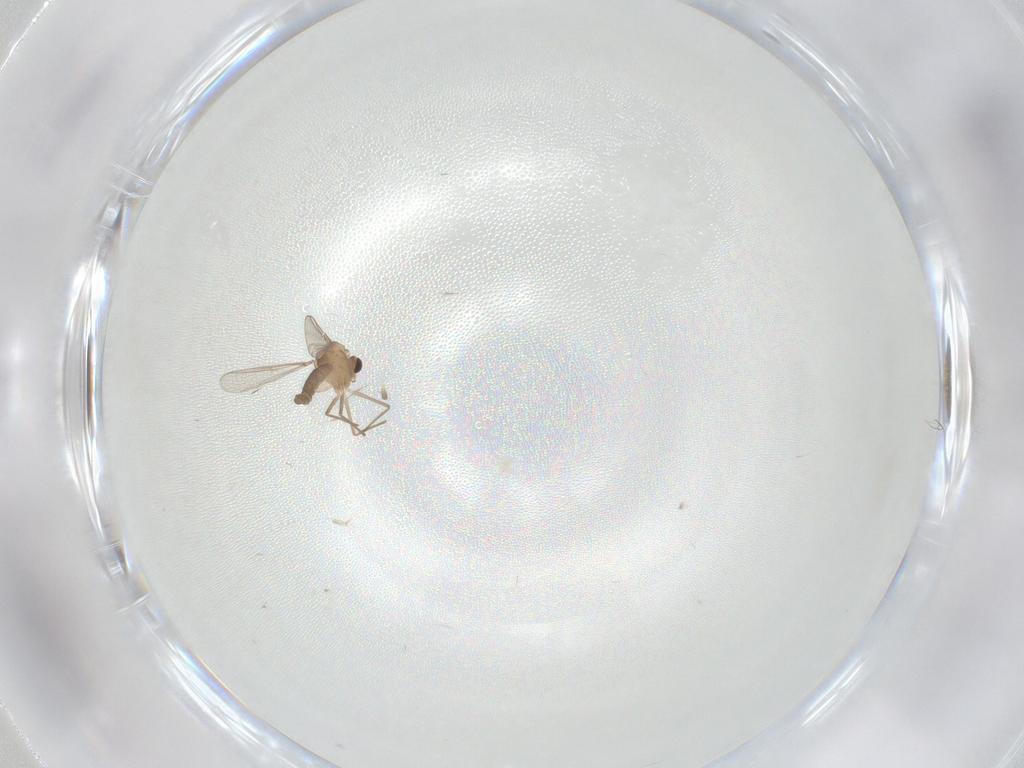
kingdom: Animalia
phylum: Arthropoda
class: Insecta
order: Diptera
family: Chironomidae
